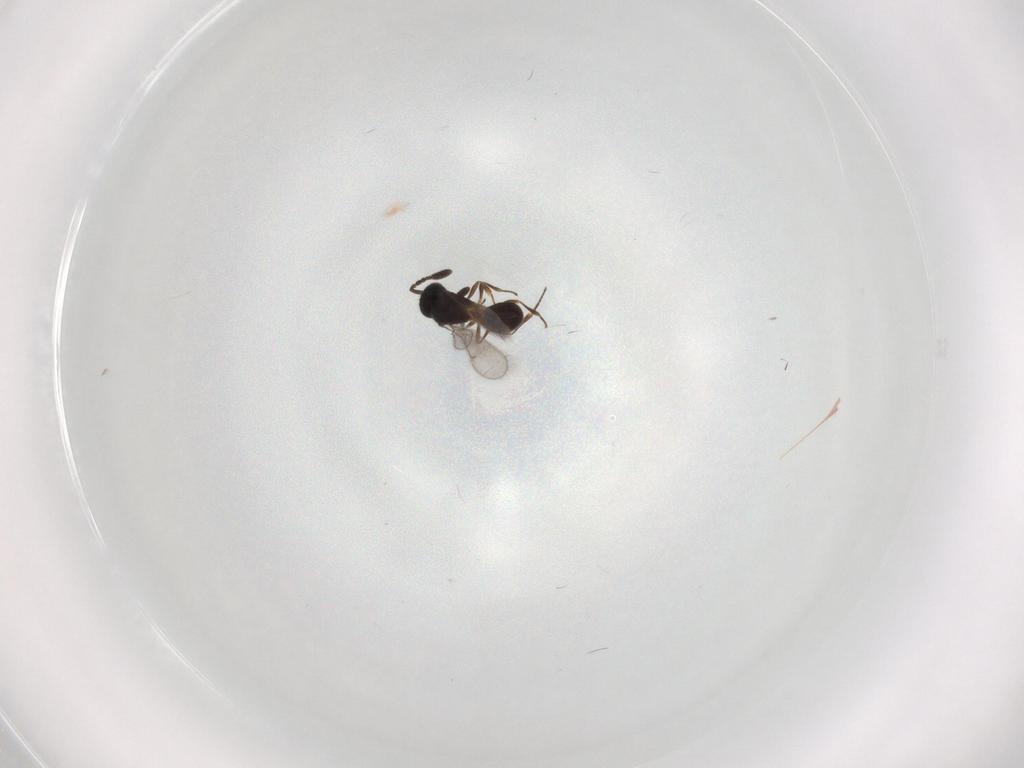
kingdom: Animalia
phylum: Arthropoda
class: Insecta
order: Hymenoptera
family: Scelionidae
